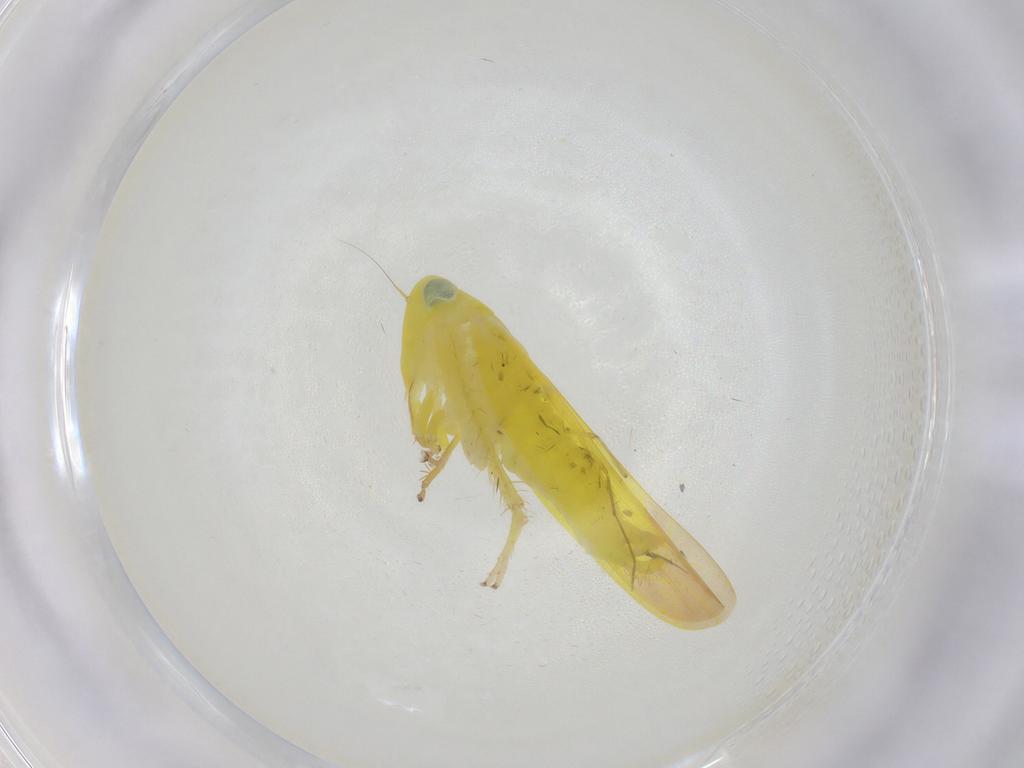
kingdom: Animalia
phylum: Arthropoda
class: Insecta
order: Hemiptera
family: Cicadellidae
